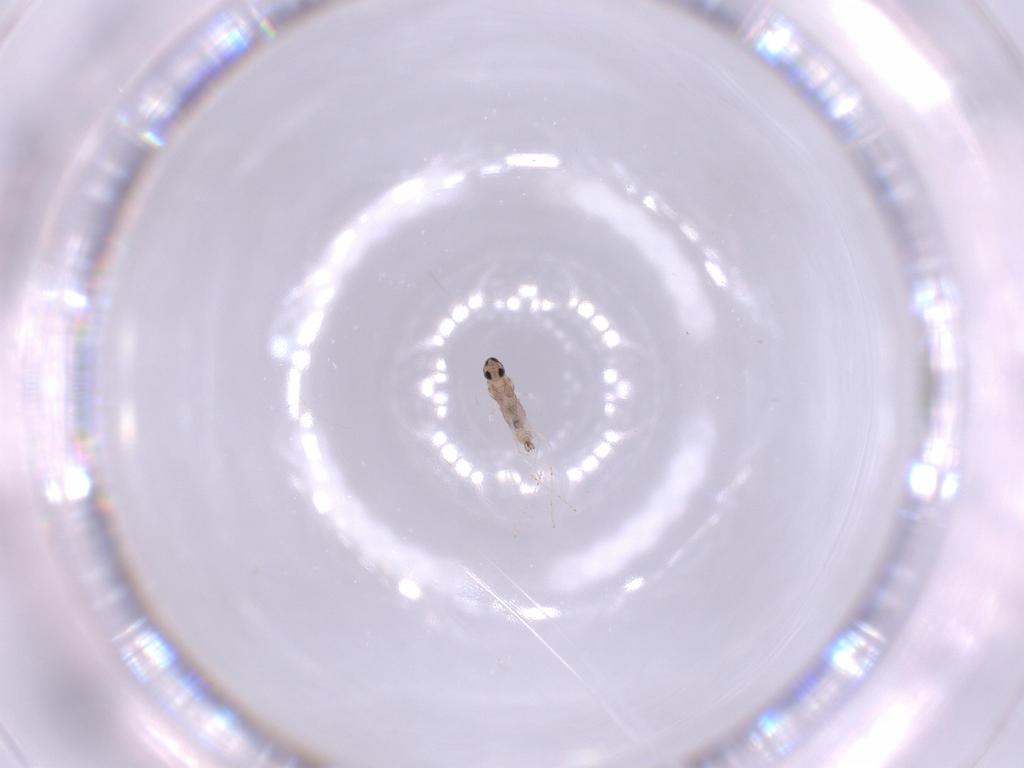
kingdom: Animalia
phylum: Arthropoda
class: Insecta
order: Diptera
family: Cecidomyiidae
